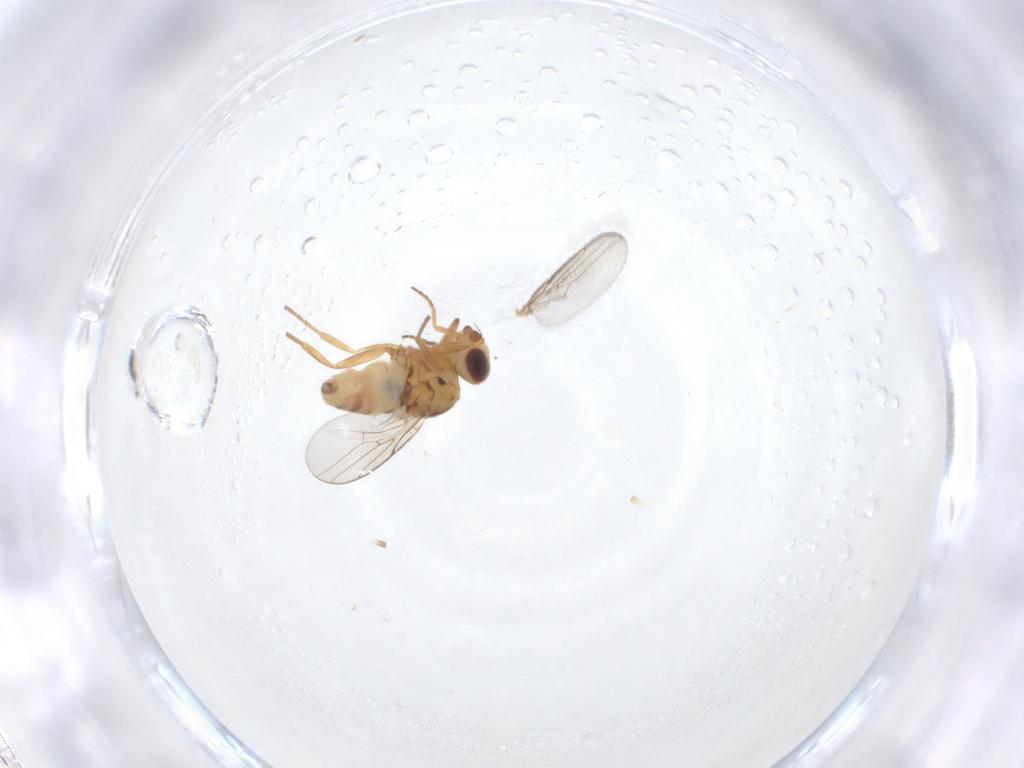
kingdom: Animalia
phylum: Arthropoda
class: Insecta
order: Diptera
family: Chloropidae
